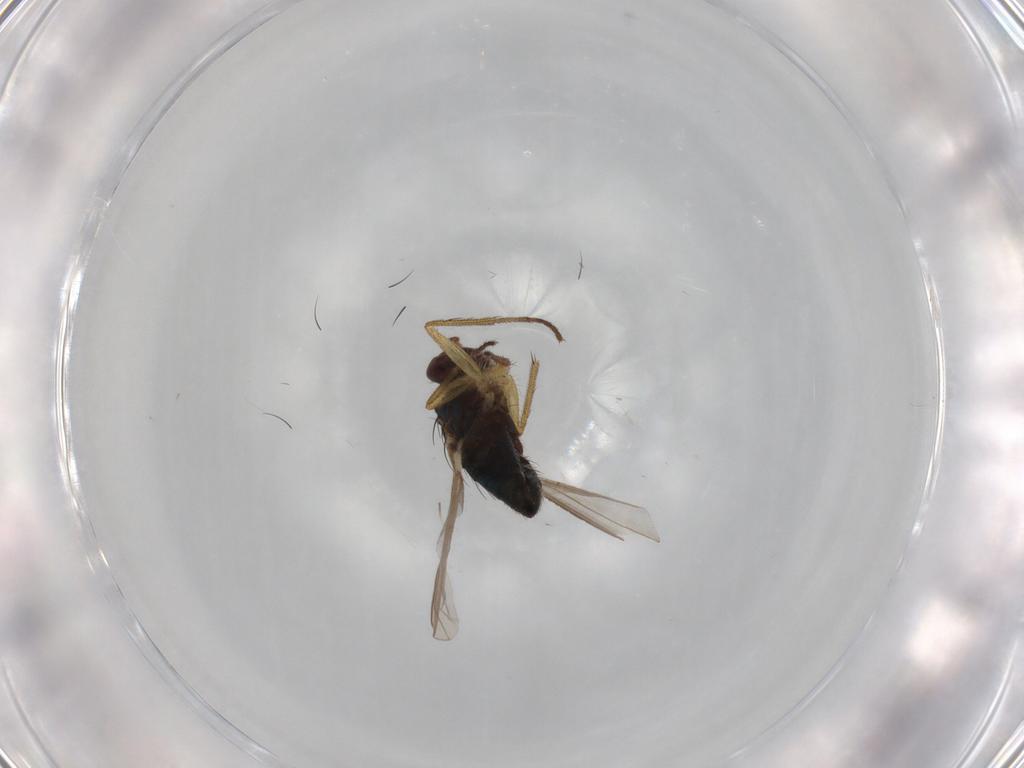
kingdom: Animalia
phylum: Arthropoda
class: Insecta
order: Diptera
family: Dolichopodidae
